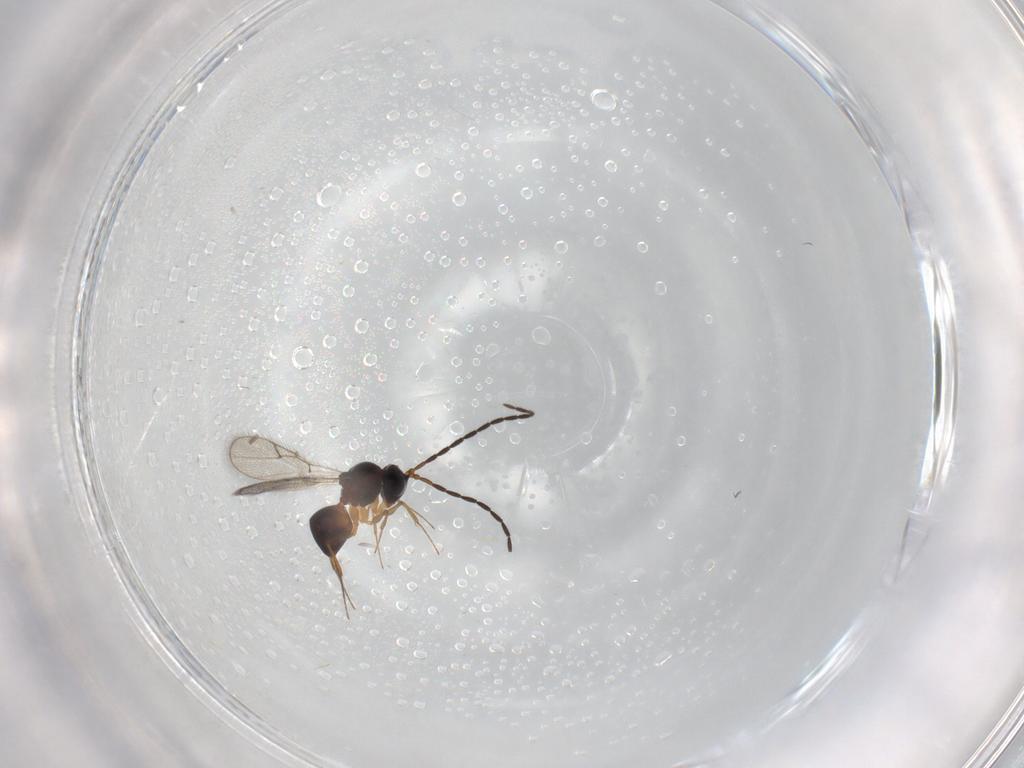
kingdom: Animalia
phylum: Arthropoda
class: Insecta
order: Hymenoptera
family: Figitidae
